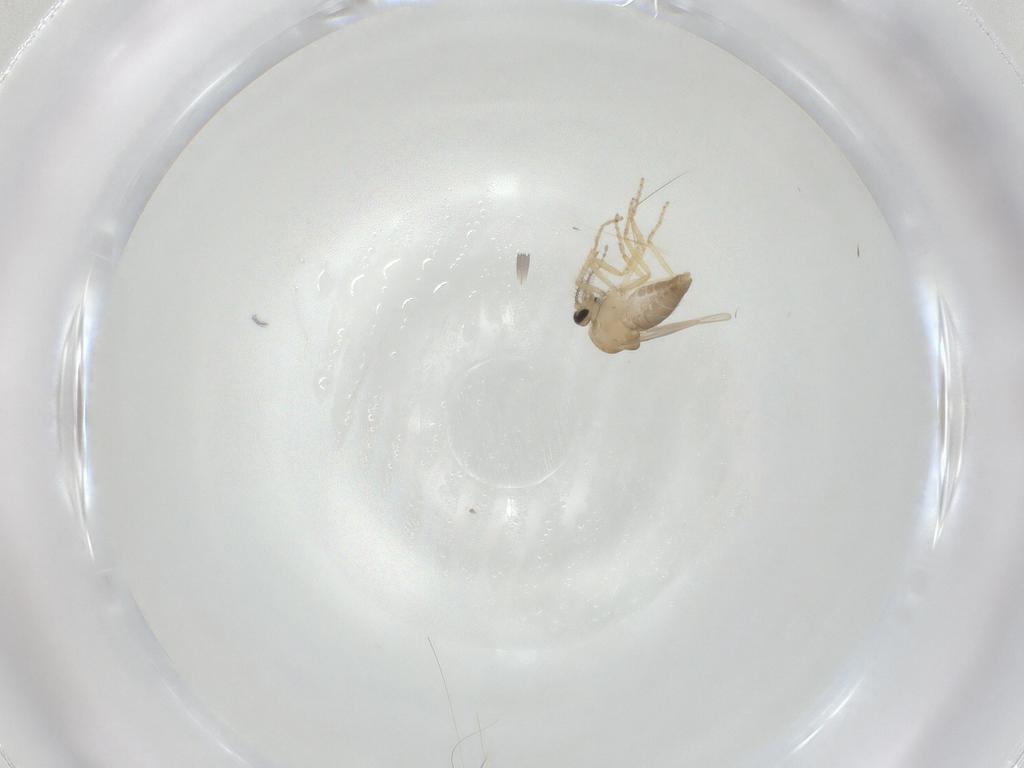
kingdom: Animalia
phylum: Arthropoda
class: Insecta
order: Diptera
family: Ceratopogonidae
